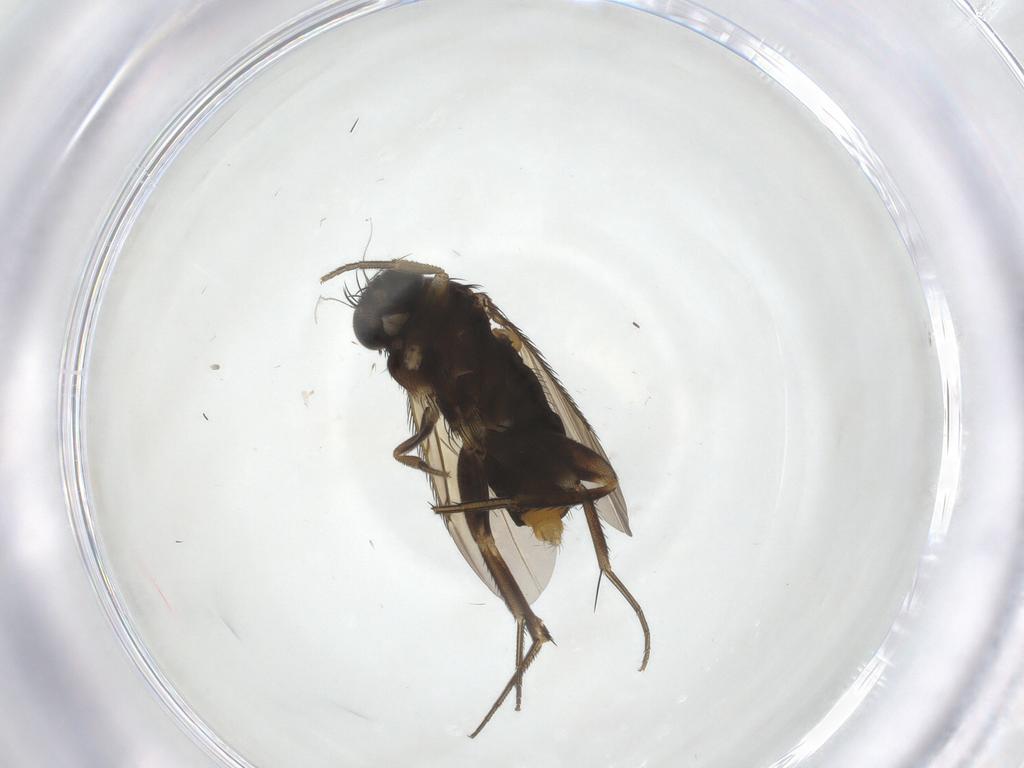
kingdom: Animalia
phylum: Arthropoda
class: Insecta
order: Diptera
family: Phoridae
